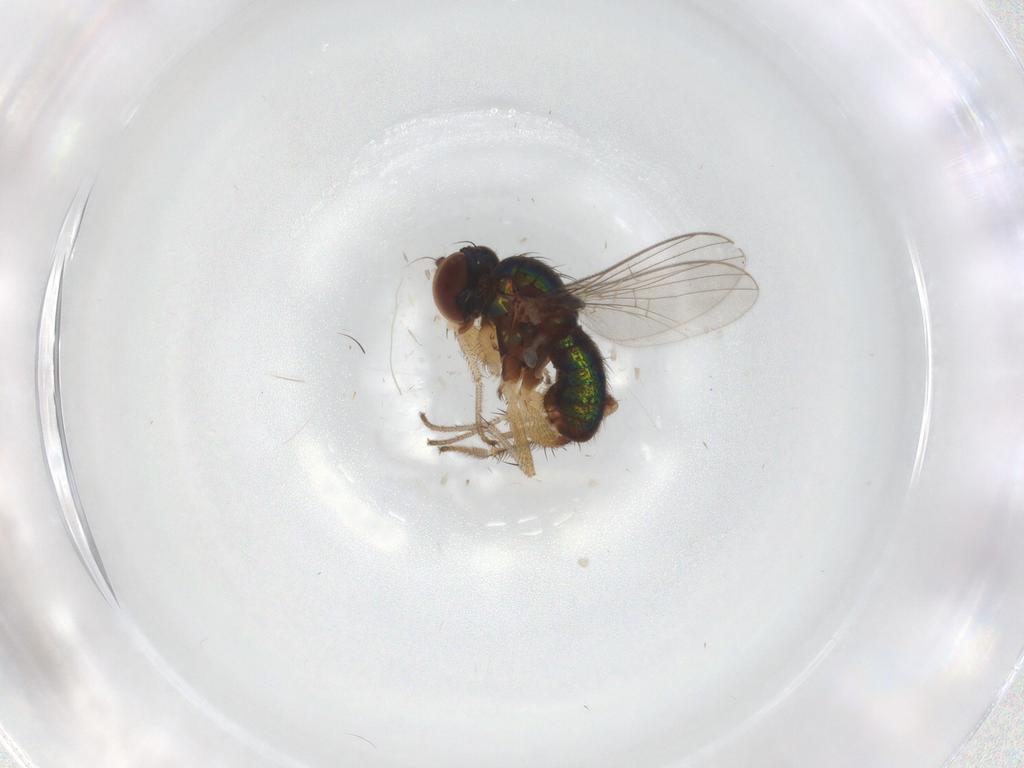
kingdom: Animalia
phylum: Arthropoda
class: Insecta
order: Diptera
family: Chironomidae
